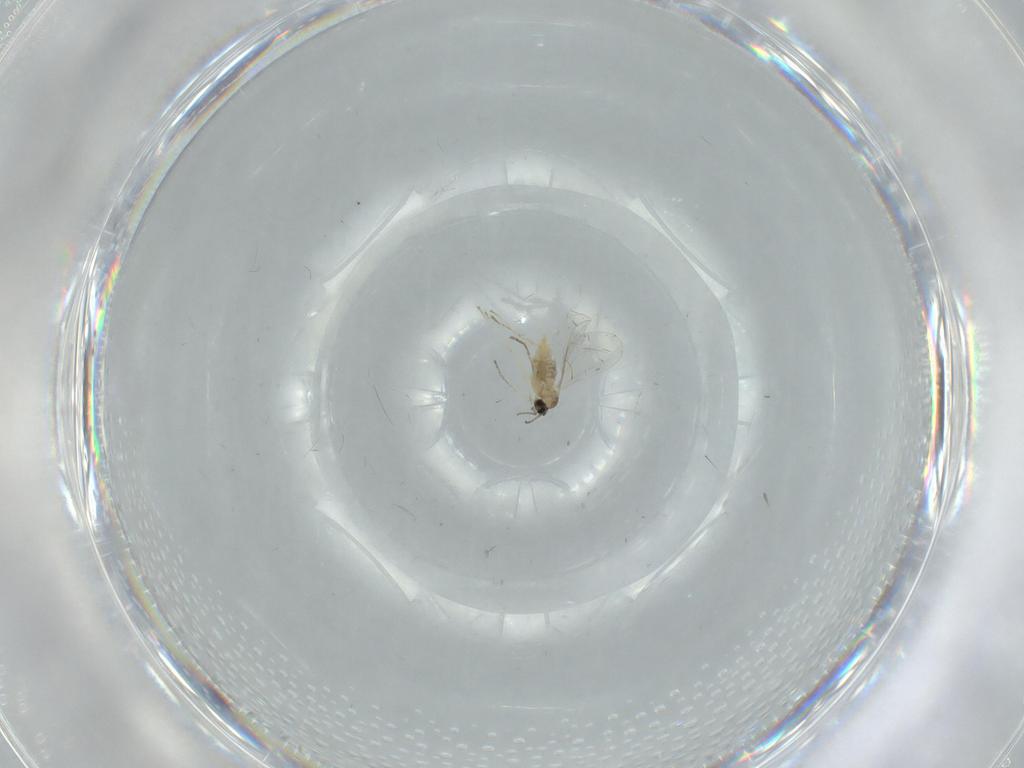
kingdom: Animalia
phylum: Arthropoda
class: Insecta
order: Diptera
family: Cecidomyiidae
